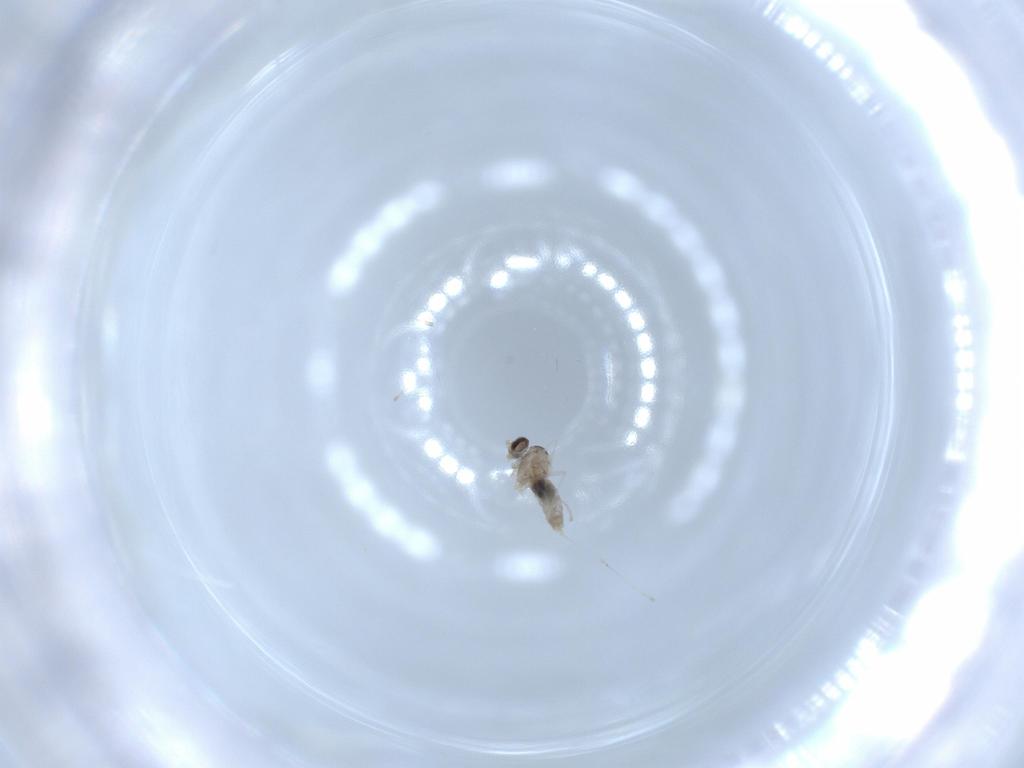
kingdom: Animalia
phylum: Arthropoda
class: Insecta
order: Diptera
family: Cecidomyiidae
